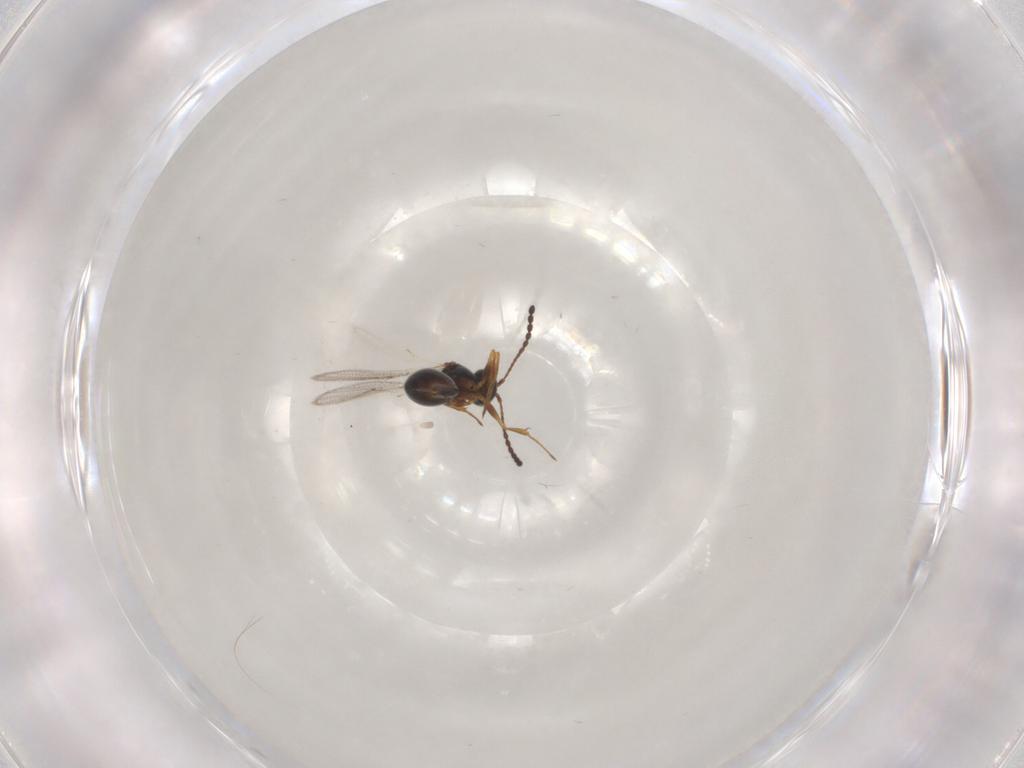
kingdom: Animalia
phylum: Arthropoda
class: Insecta
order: Hymenoptera
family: Figitidae
